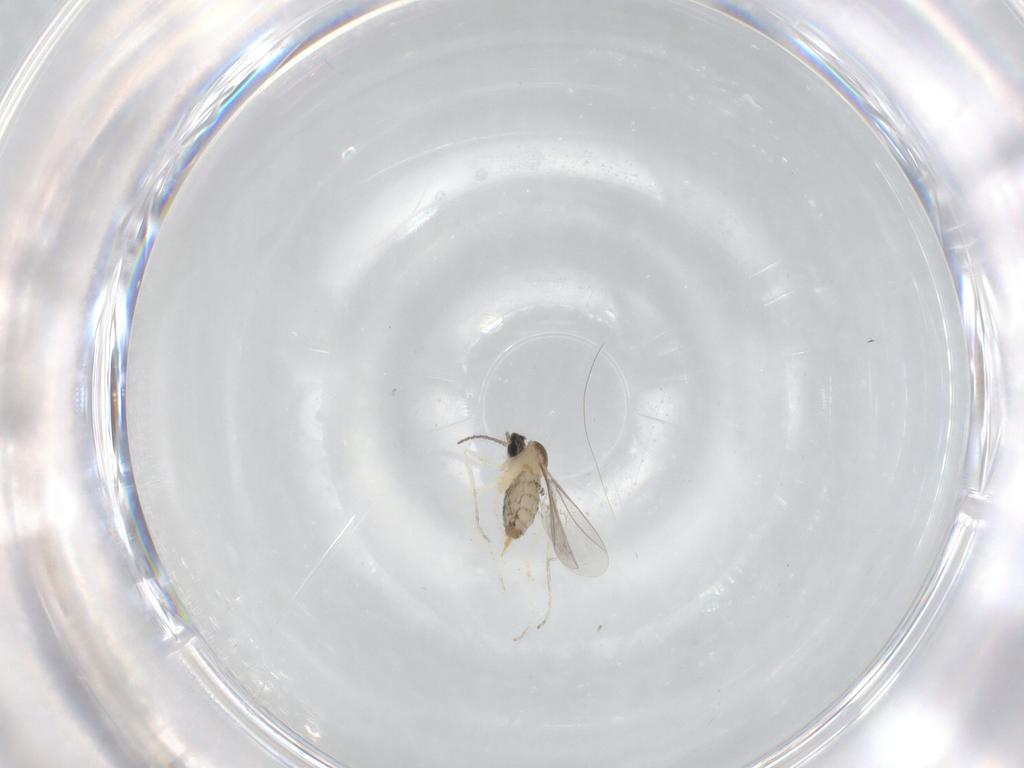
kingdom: Animalia
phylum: Arthropoda
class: Insecta
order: Diptera
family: Cecidomyiidae
